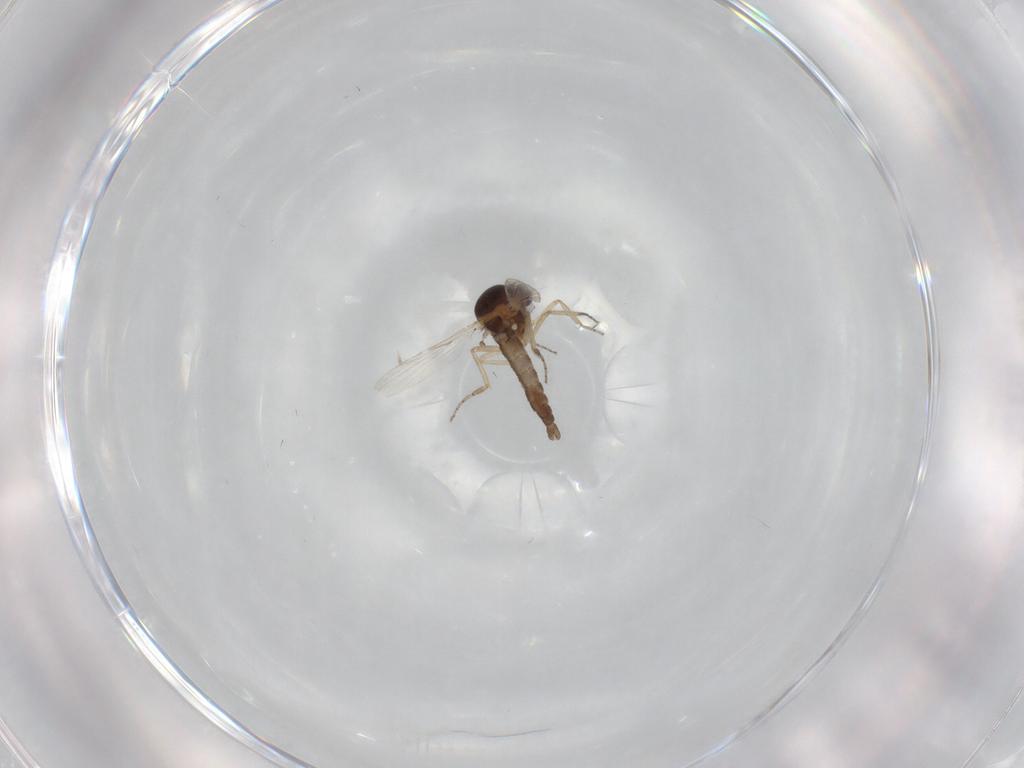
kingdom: Animalia
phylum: Arthropoda
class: Insecta
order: Diptera
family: Ceratopogonidae
